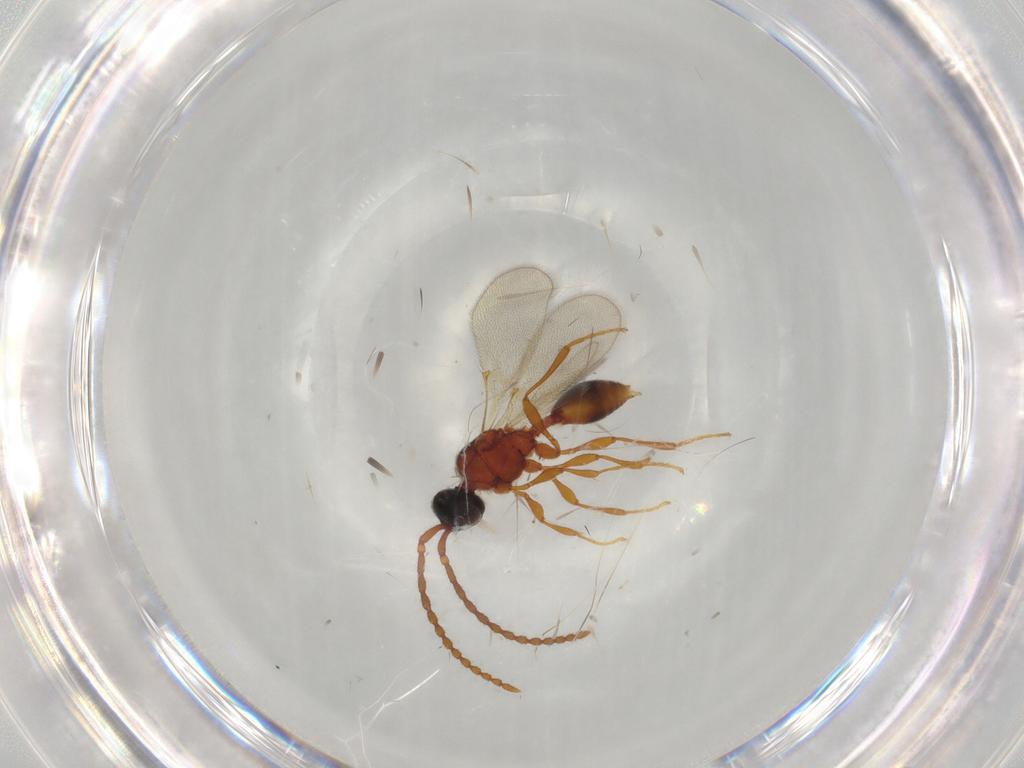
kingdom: Animalia
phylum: Arthropoda
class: Insecta
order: Hymenoptera
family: Diapriidae
